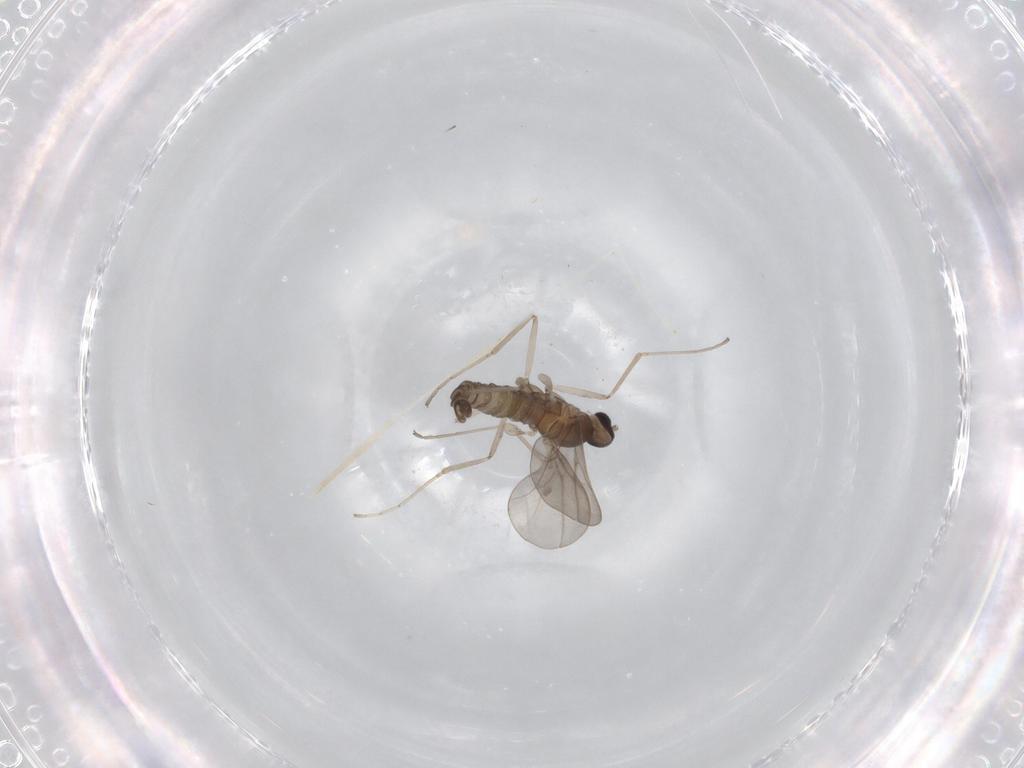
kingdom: Animalia
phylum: Arthropoda
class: Insecta
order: Diptera
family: Cecidomyiidae
